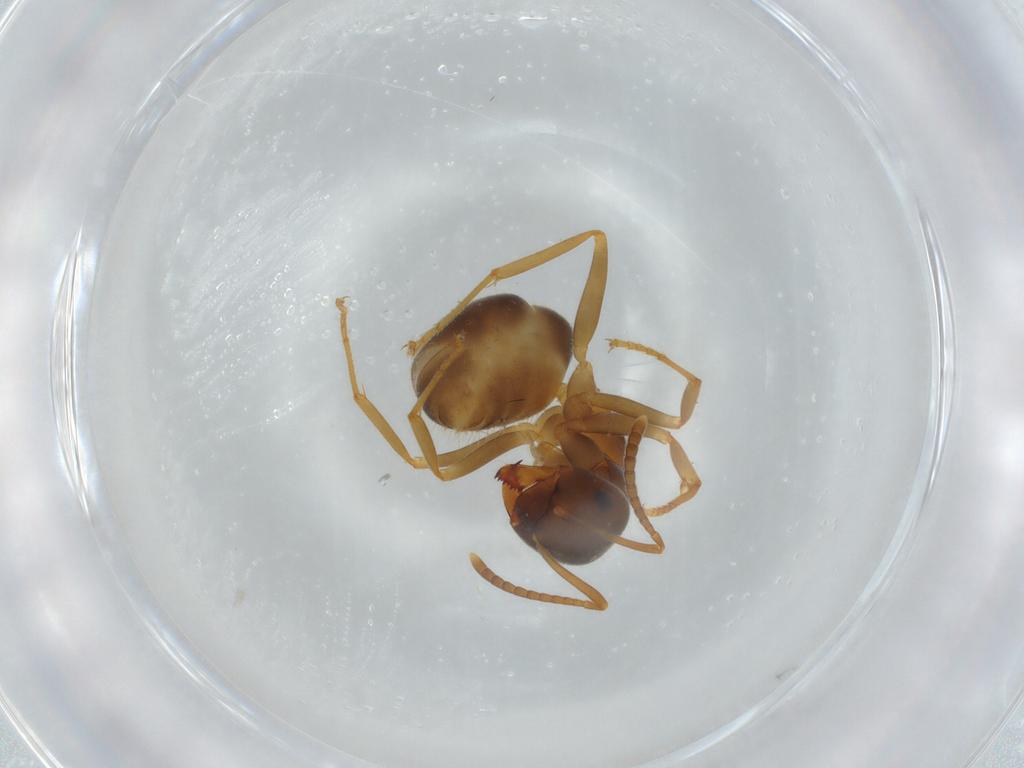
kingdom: Animalia
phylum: Arthropoda
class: Insecta
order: Hymenoptera
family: Formicidae
